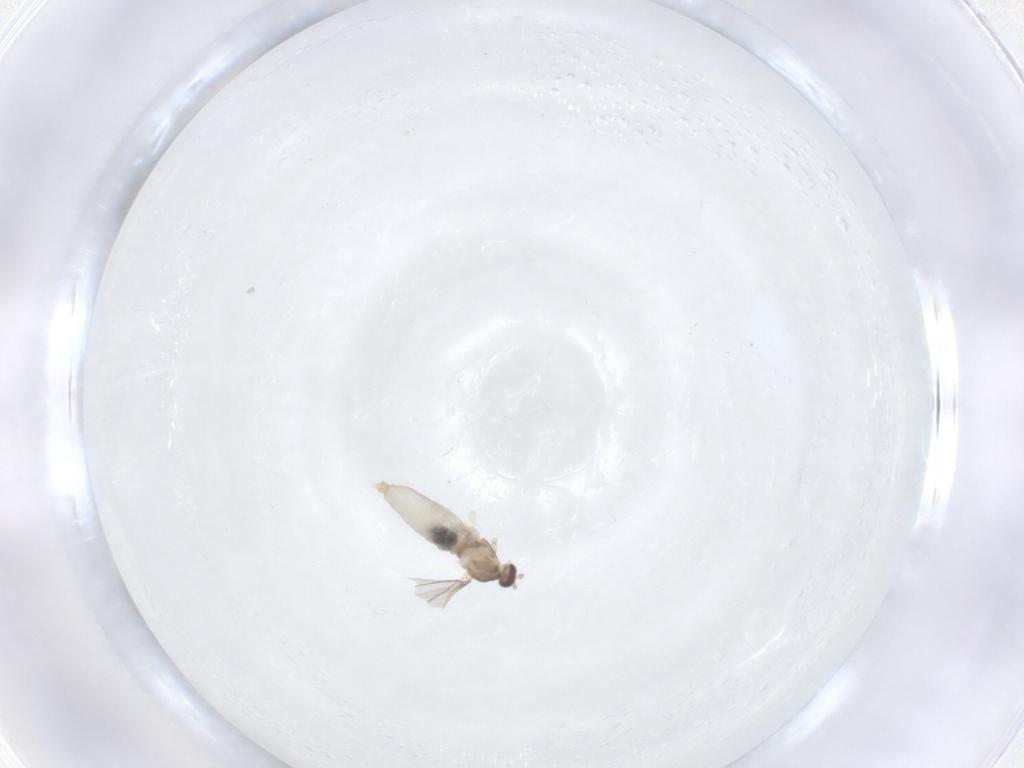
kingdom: Animalia
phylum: Arthropoda
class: Insecta
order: Diptera
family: Cecidomyiidae
